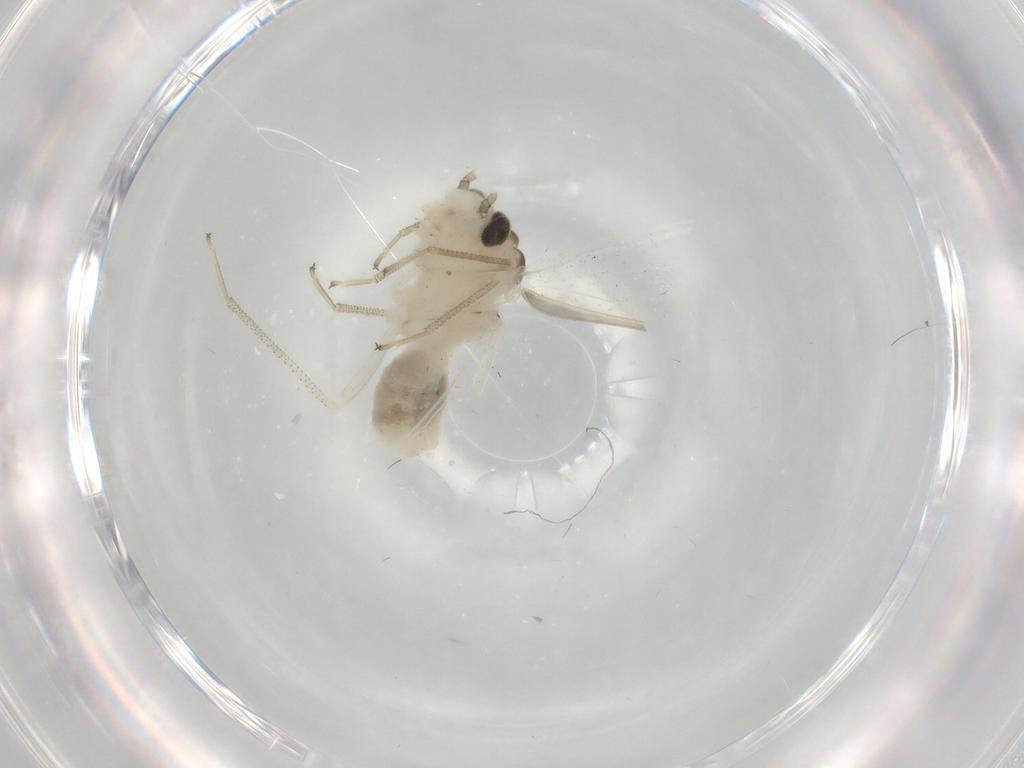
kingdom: Animalia
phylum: Arthropoda
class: Insecta
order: Psocodea
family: Caeciliusidae
